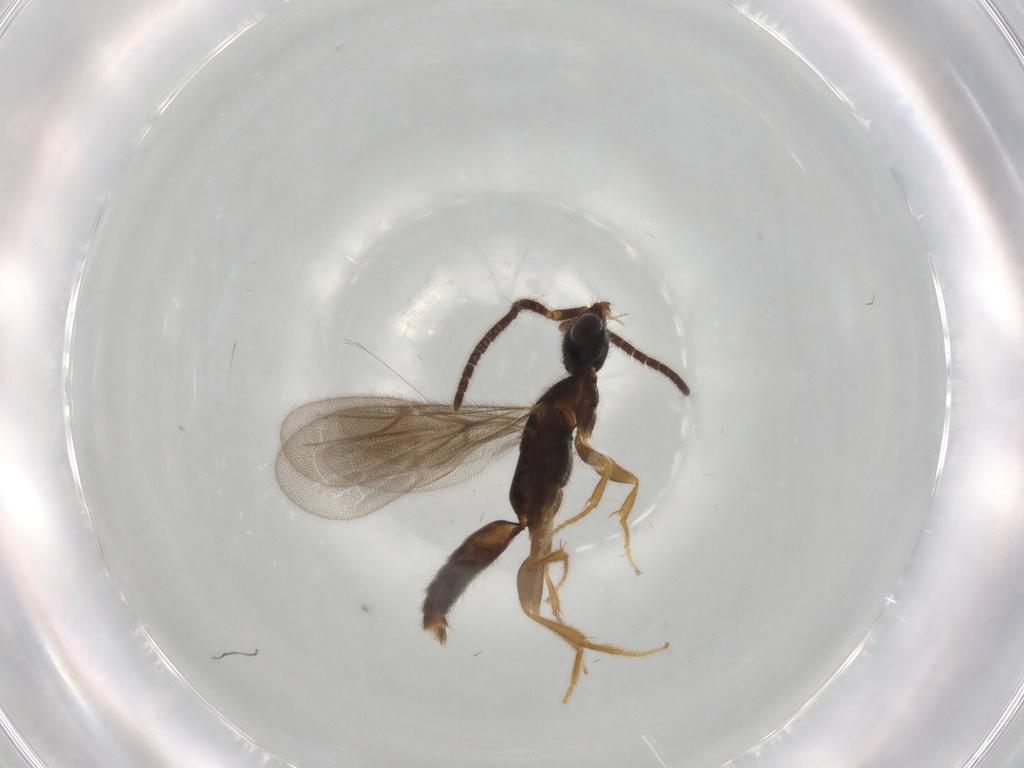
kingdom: Animalia
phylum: Arthropoda
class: Insecta
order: Hymenoptera
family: Bethylidae
